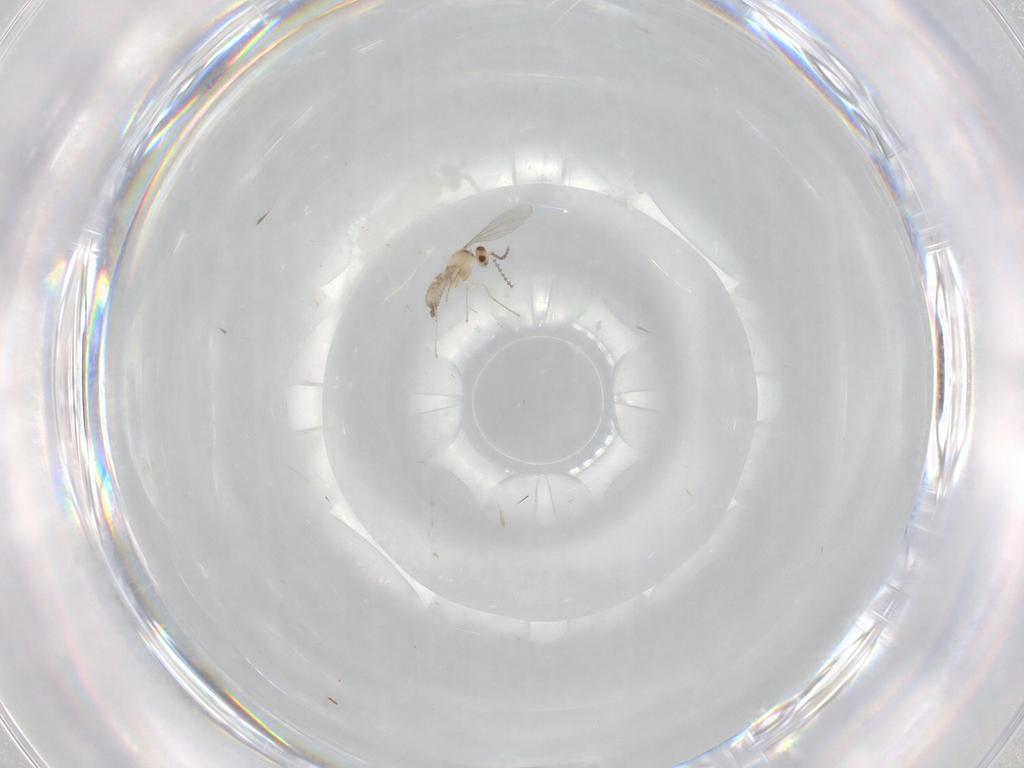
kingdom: Animalia
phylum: Arthropoda
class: Insecta
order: Diptera
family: Cecidomyiidae
